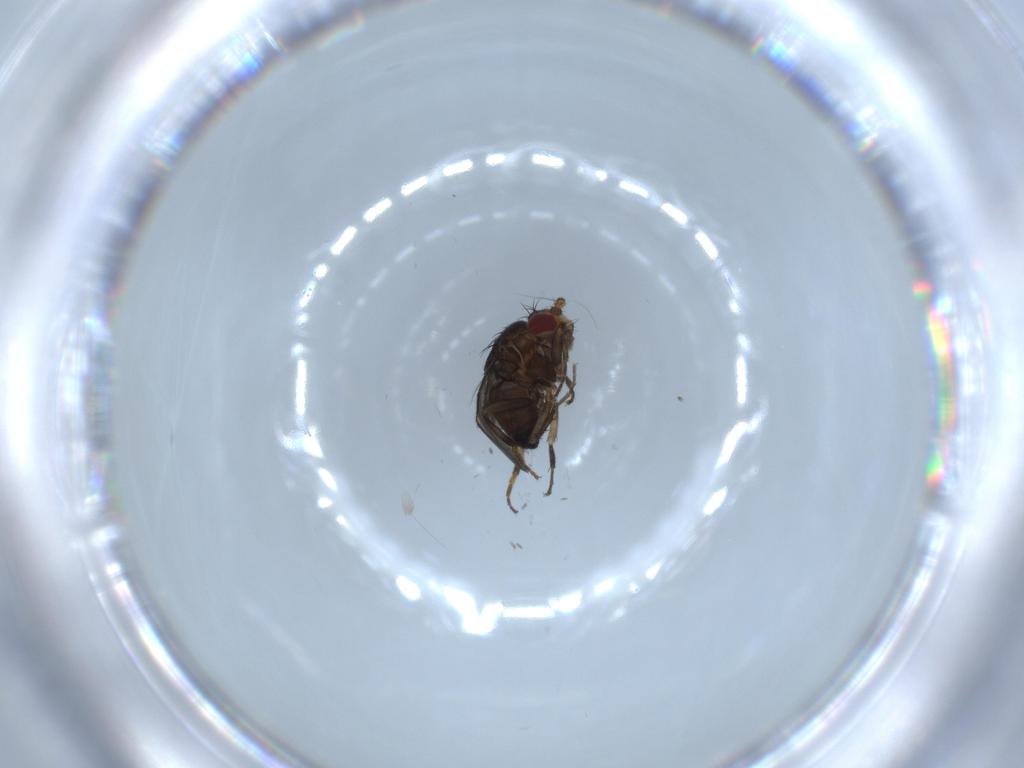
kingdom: Animalia
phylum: Arthropoda
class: Insecta
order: Diptera
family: Sphaeroceridae
